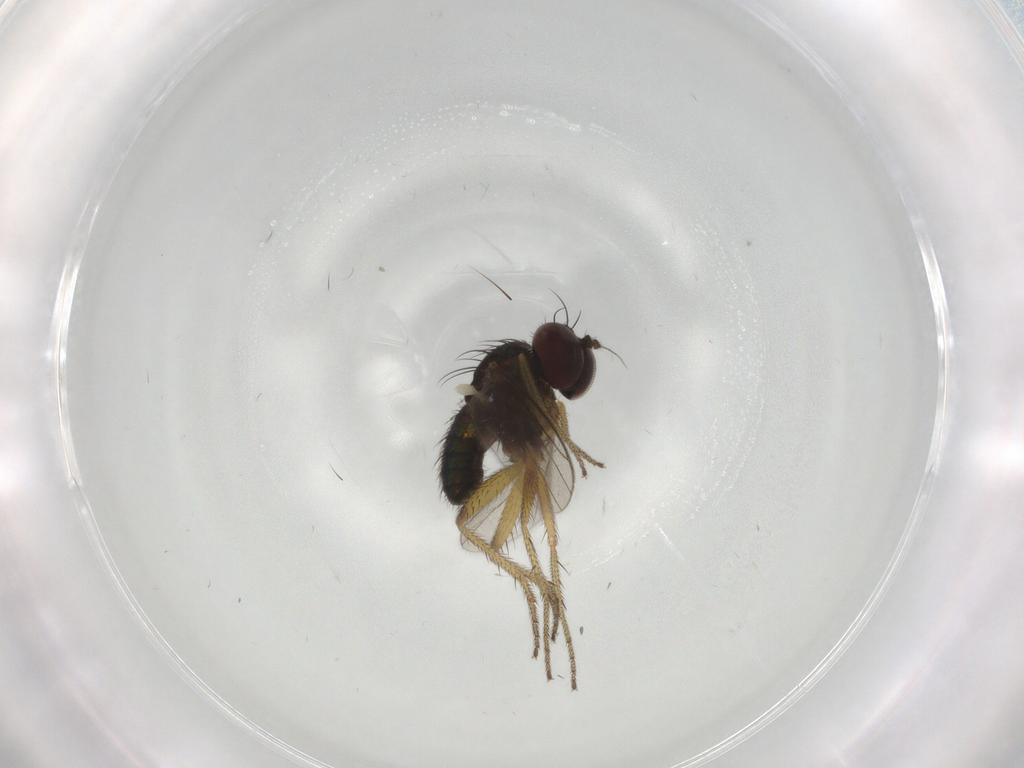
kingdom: Animalia
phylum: Arthropoda
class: Insecta
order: Diptera
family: Dolichopodidae
